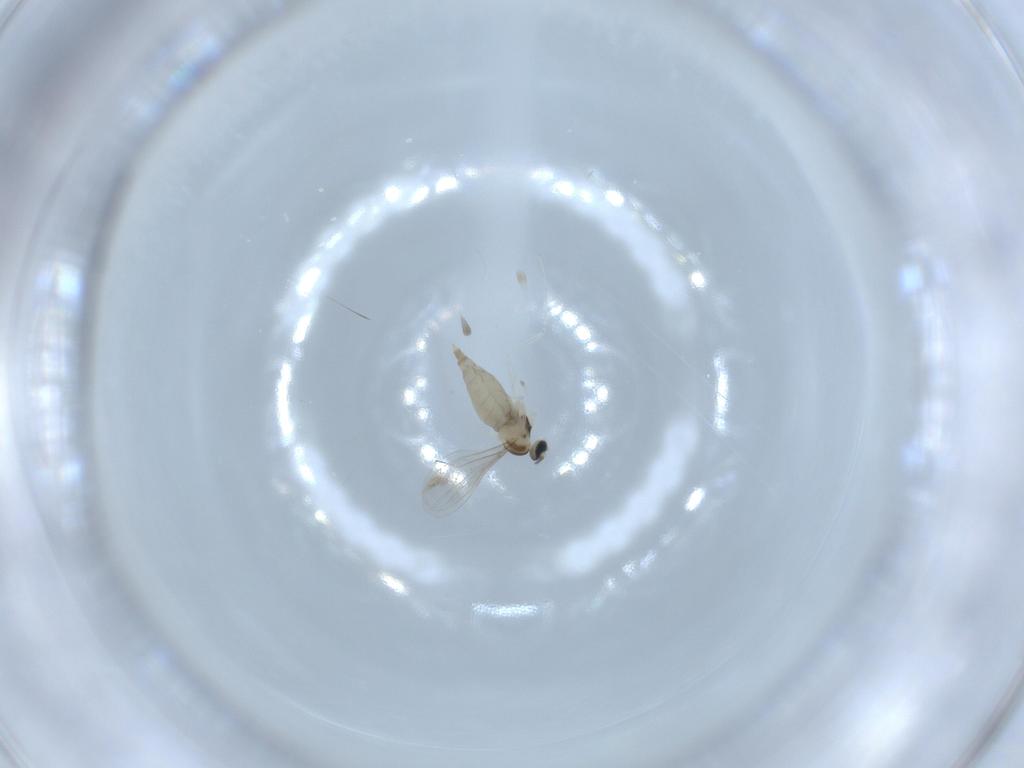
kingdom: Animalia
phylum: Arthropoda
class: Insecta
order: Diptera
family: Cecidomyiidae
